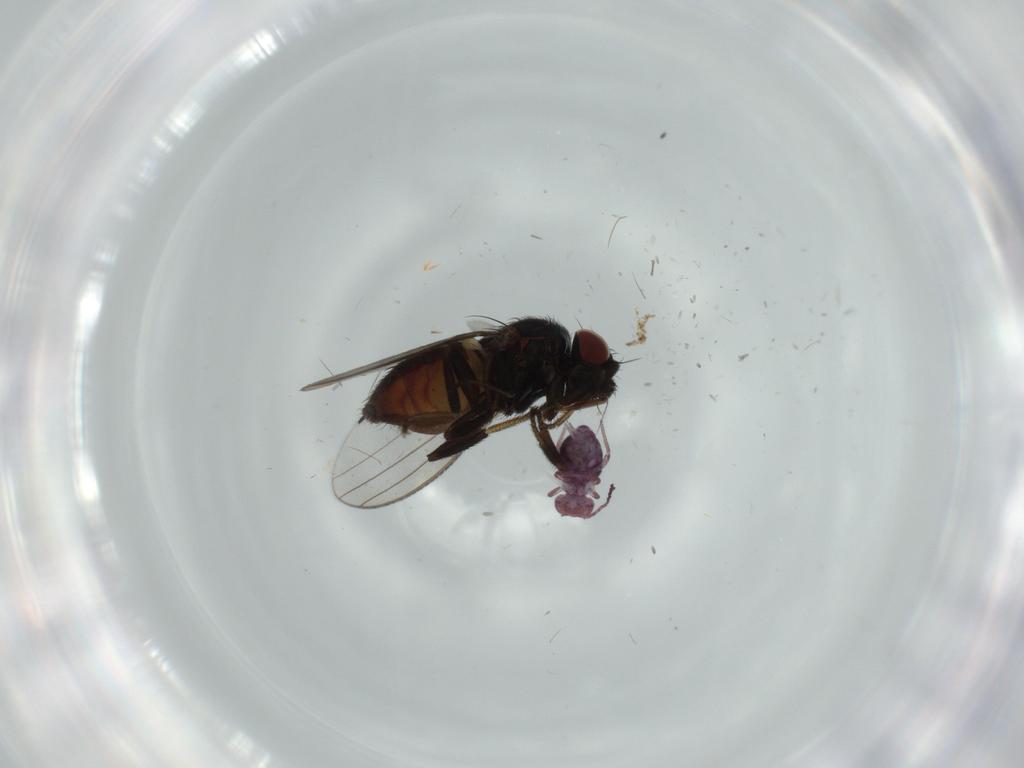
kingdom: Animalia
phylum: Arthropoda
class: Insecta
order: Diptera
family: Milichiidae
